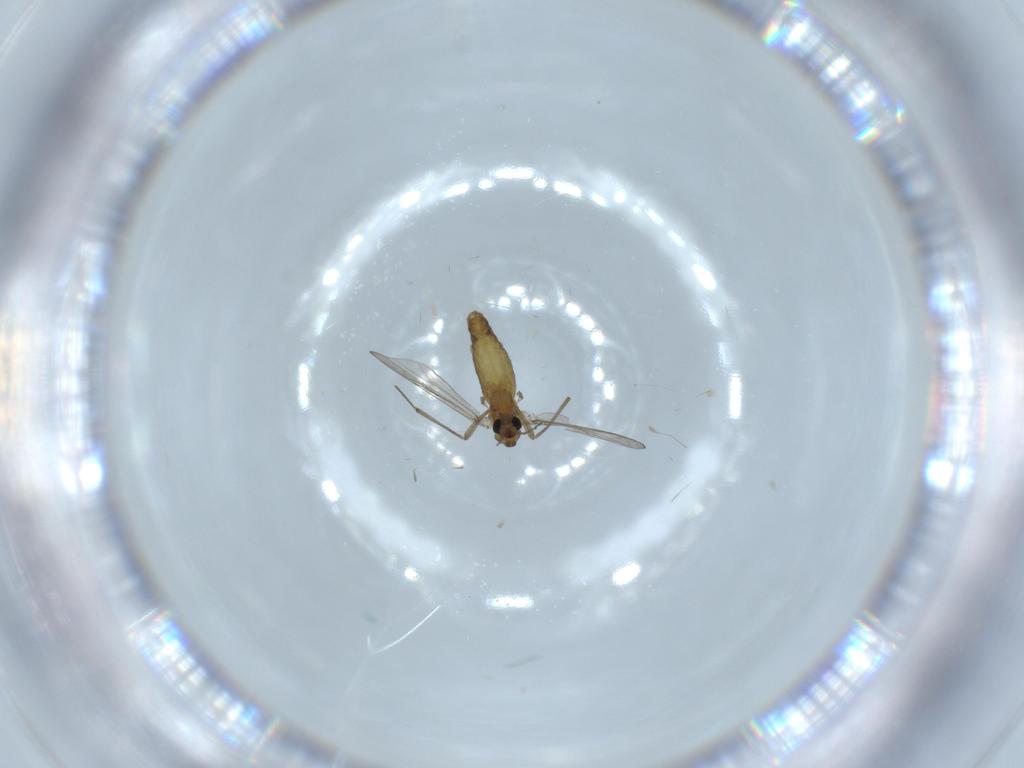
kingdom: Animalia
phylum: Arthropoda
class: Insecta
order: Diptera
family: Chironomidae
